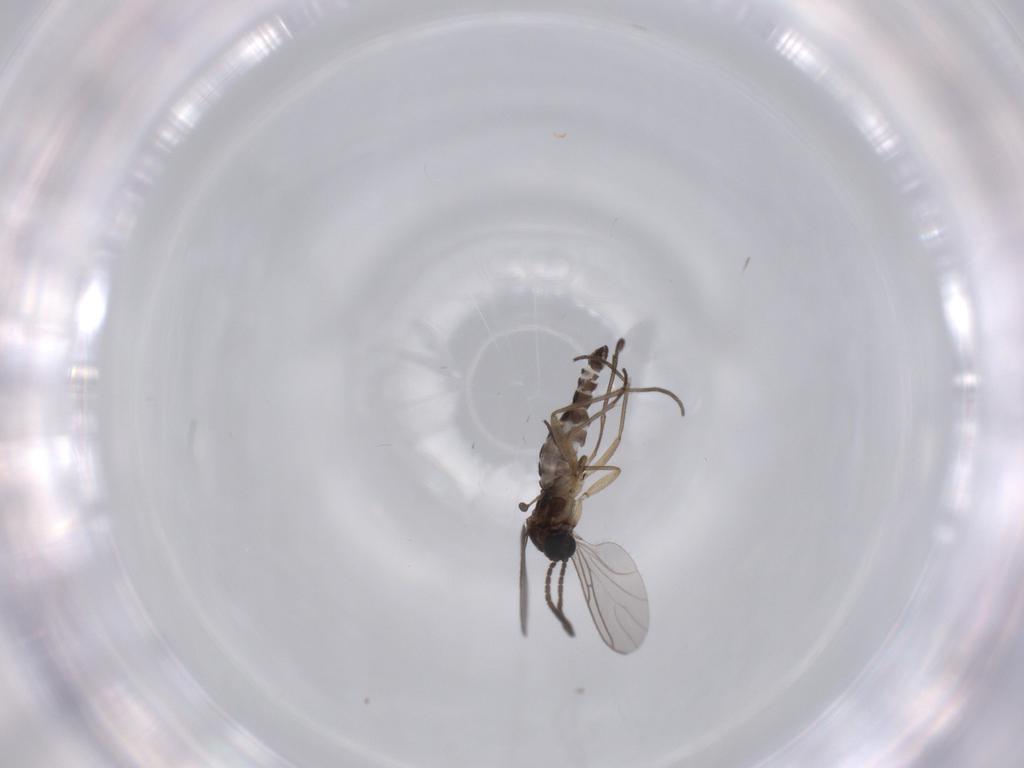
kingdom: Animalia
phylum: Arthropoda
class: Insecta
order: Diptera
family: Sciaridae
